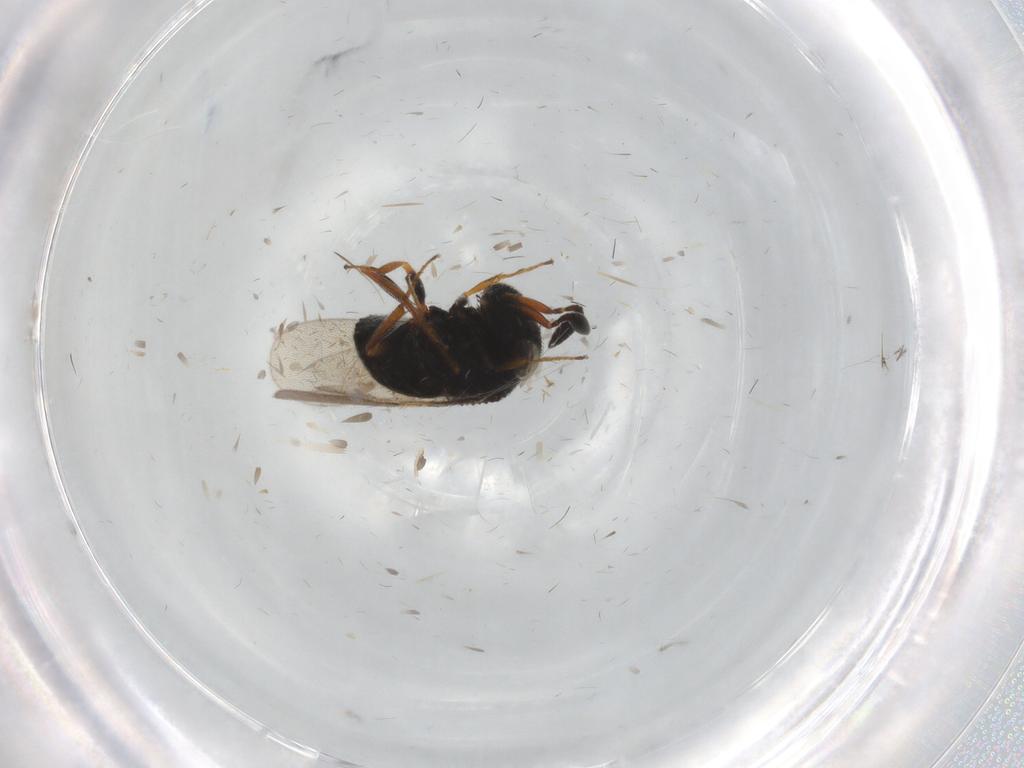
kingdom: Animalia
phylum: Arthropoda
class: Insecta
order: Hymenoptera
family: Scelionidae
